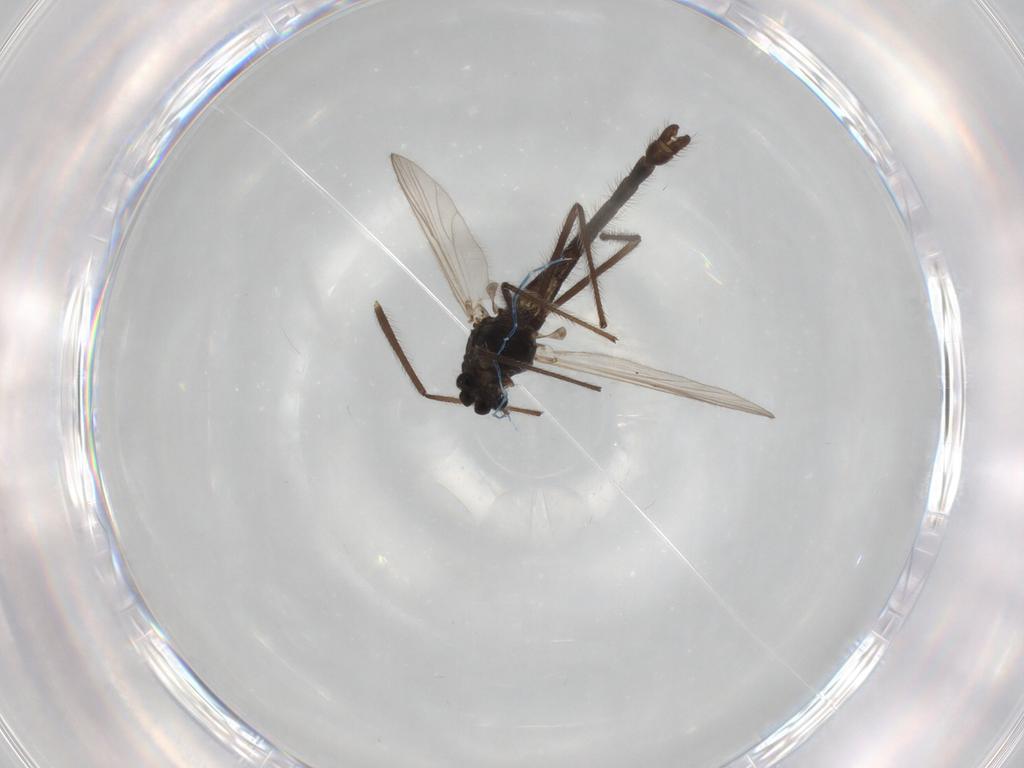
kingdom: Animalia
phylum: Arthropoda
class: Insecta
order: Diptera
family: Chironomidae
